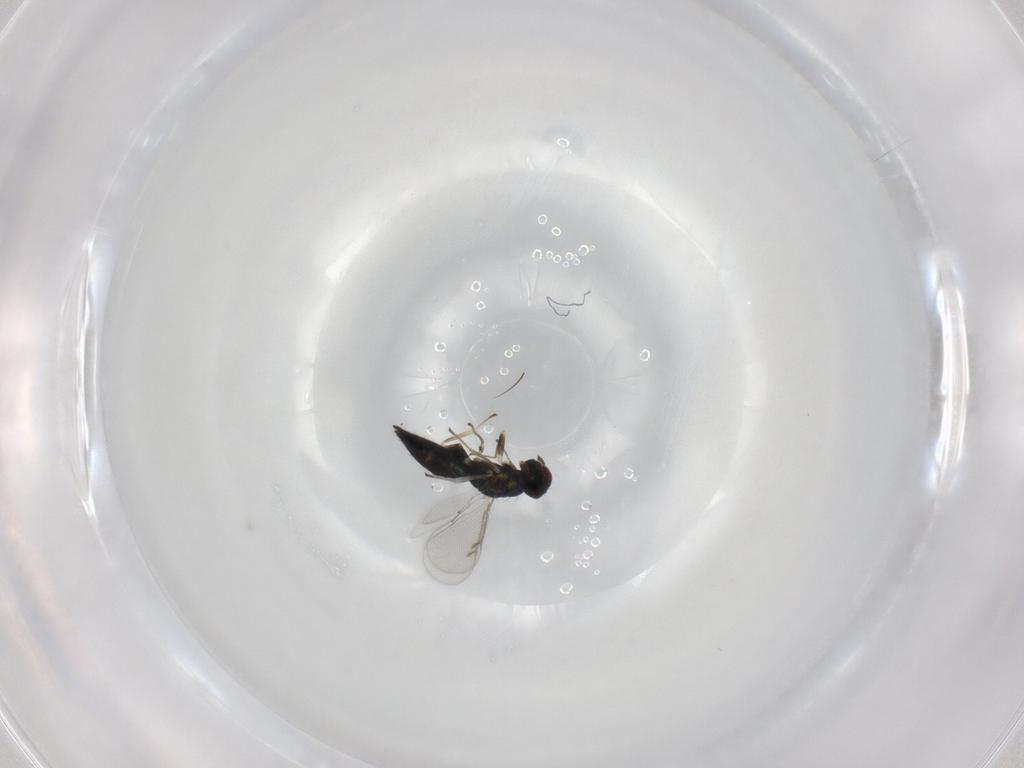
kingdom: Animalia
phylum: Arthropoda
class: Insecta
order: Hymenoptera
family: Eulophidae
